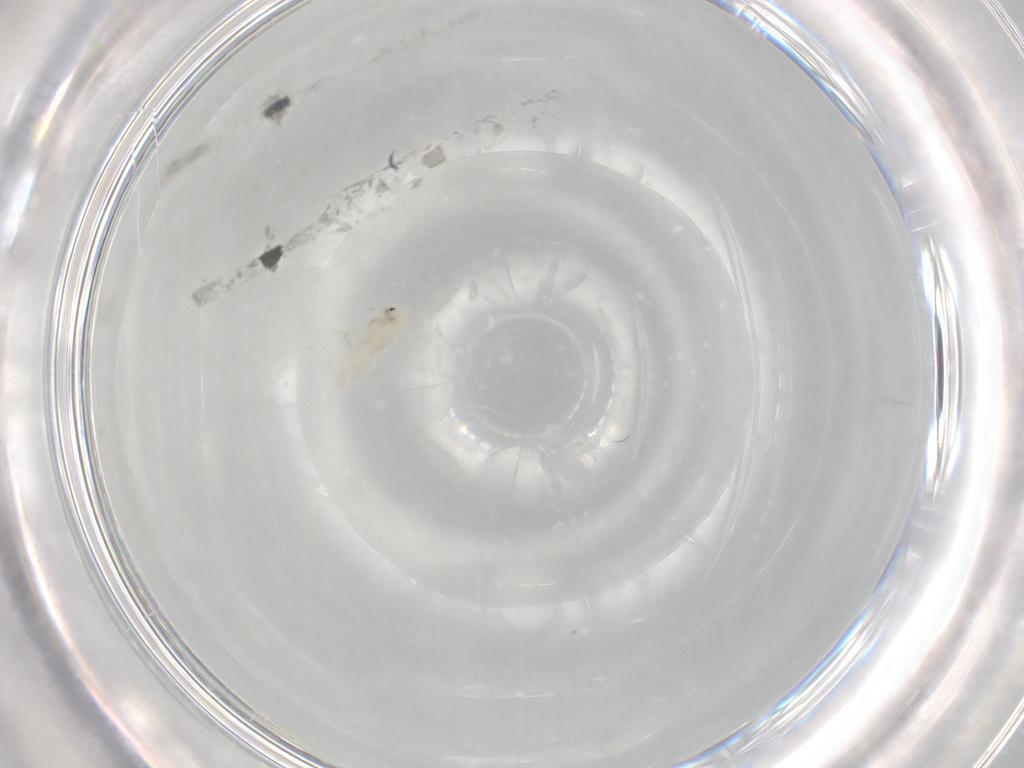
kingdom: Animalia
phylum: Arthropoda
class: Collembola
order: Entomobryomorpha
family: Entomobryidae
